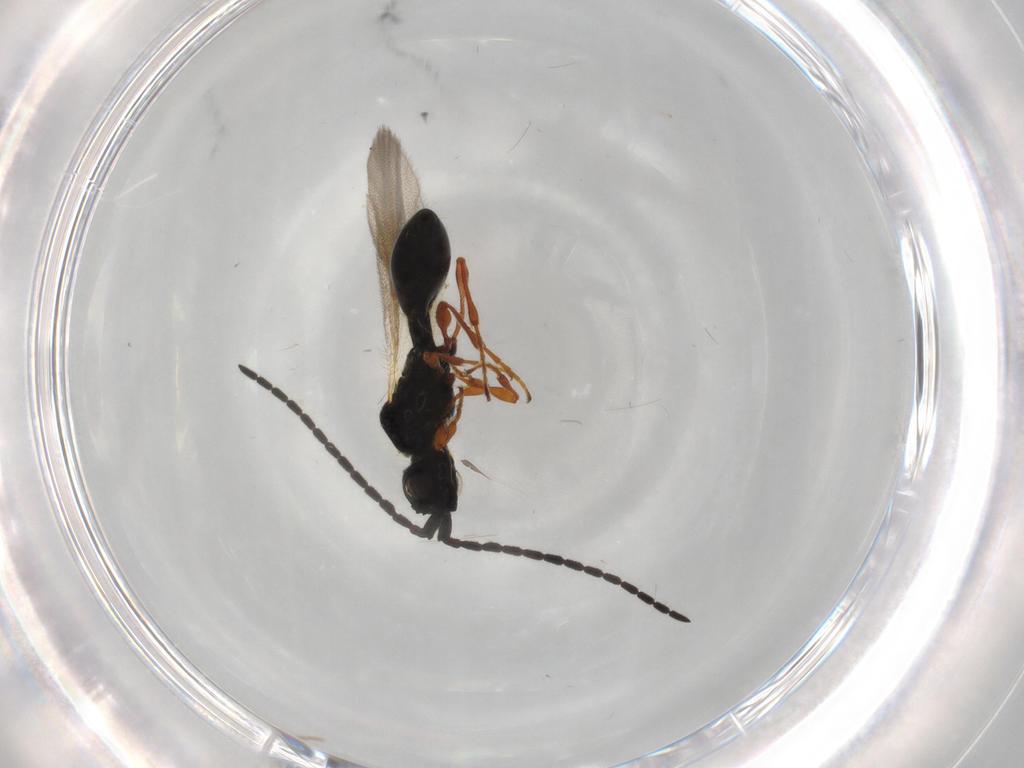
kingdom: Animalia
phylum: Arthropoda
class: Insecta
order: Hymenoptera
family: Diapriidae
